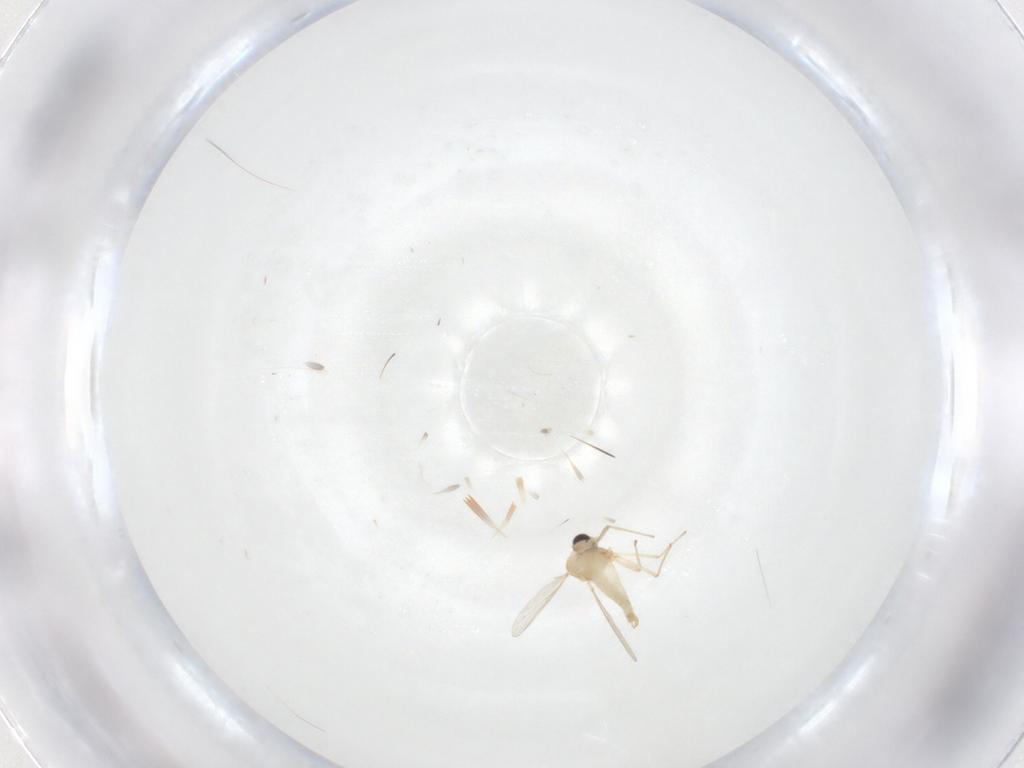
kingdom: Animalia
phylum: Arthropoda
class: Insecta
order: Diptera
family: Chironomidae
